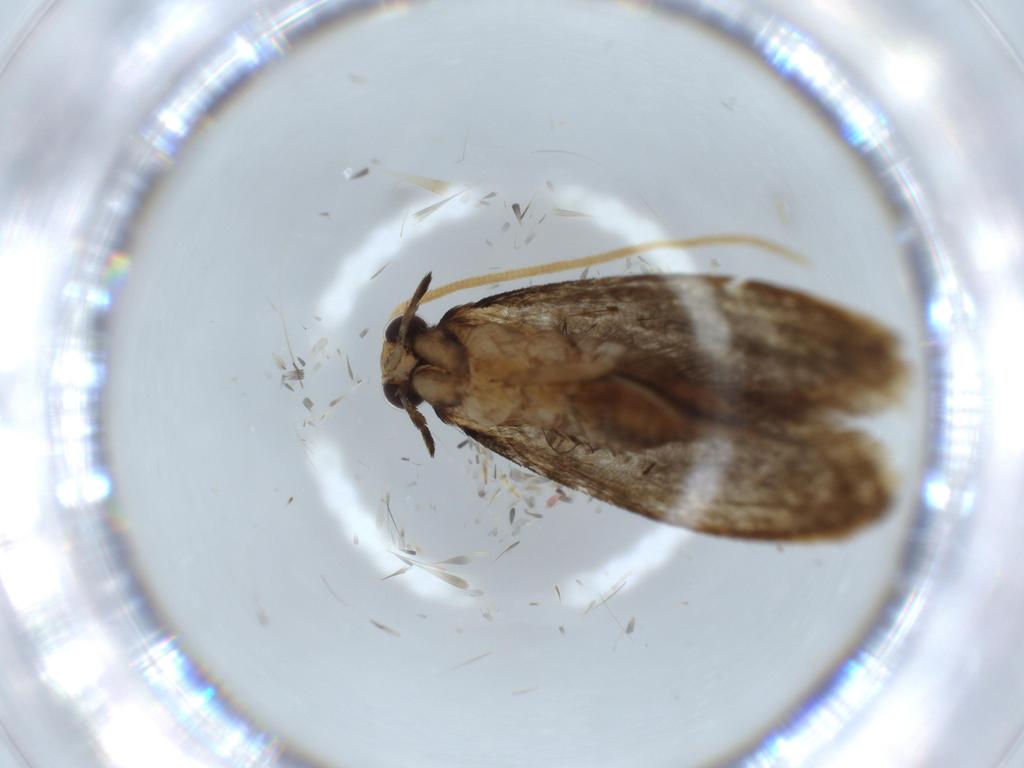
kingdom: Animalia
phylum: Arthropoda
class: Insecta
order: Lepidoptera
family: Tineidae
